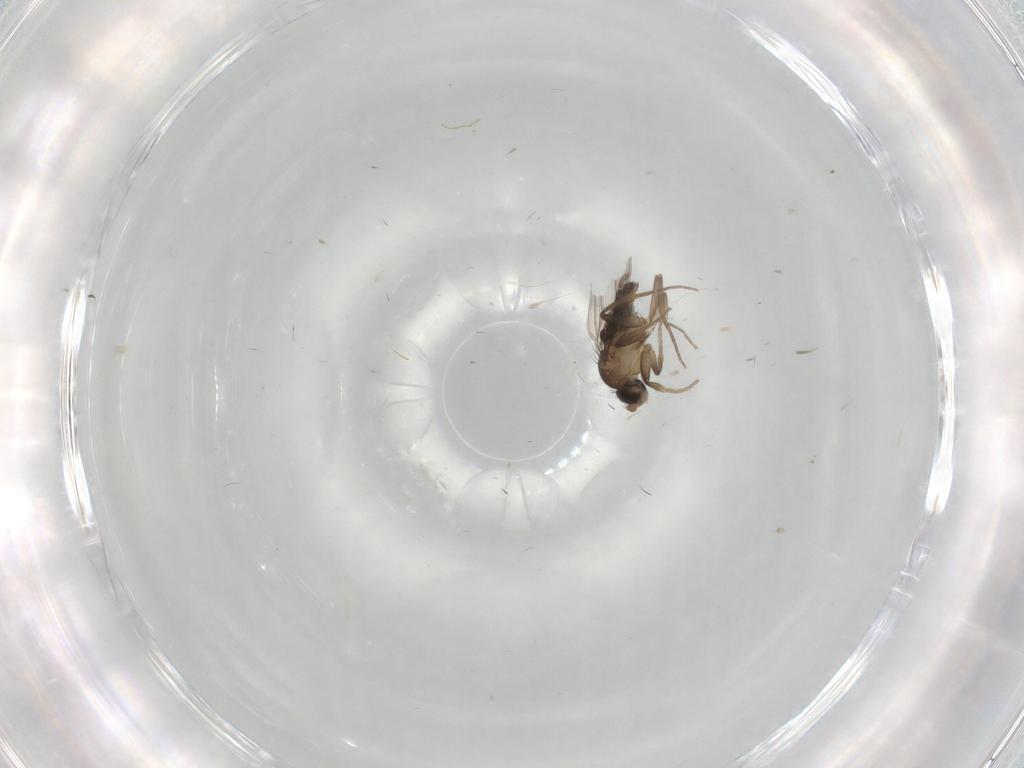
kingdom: Animalia
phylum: Arthropoda
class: Insecta
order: Diptera
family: Phoridae
